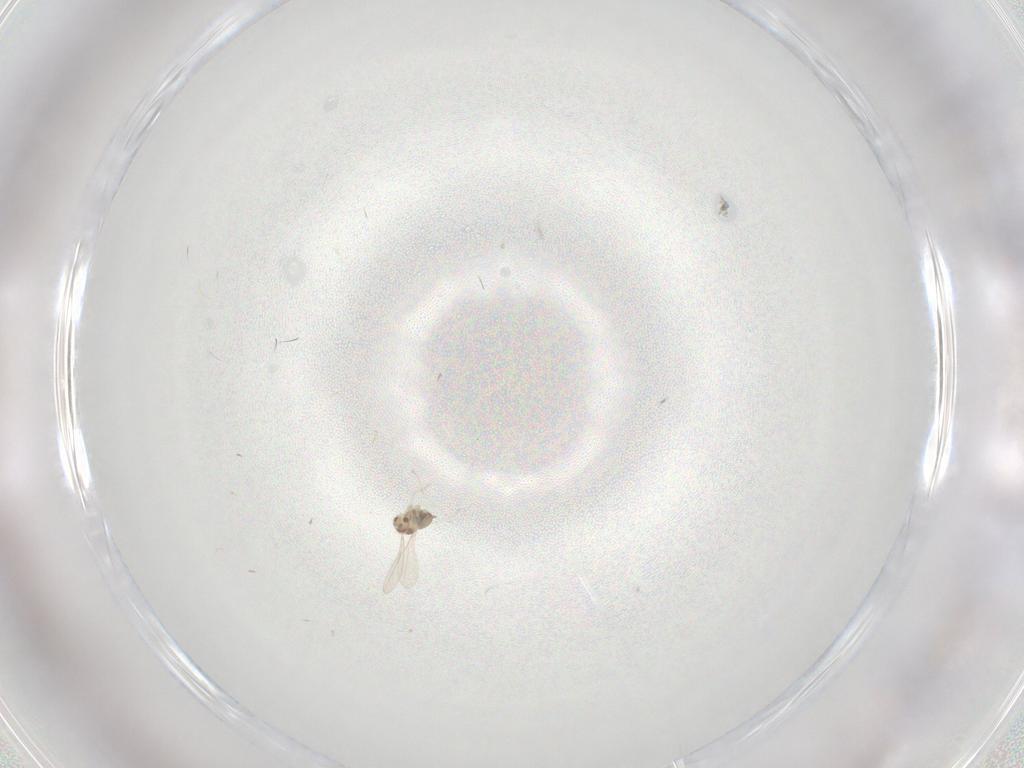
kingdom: Animalia
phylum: Arthropoda
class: Insecta
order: Diptera
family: Cecidomyiidae
